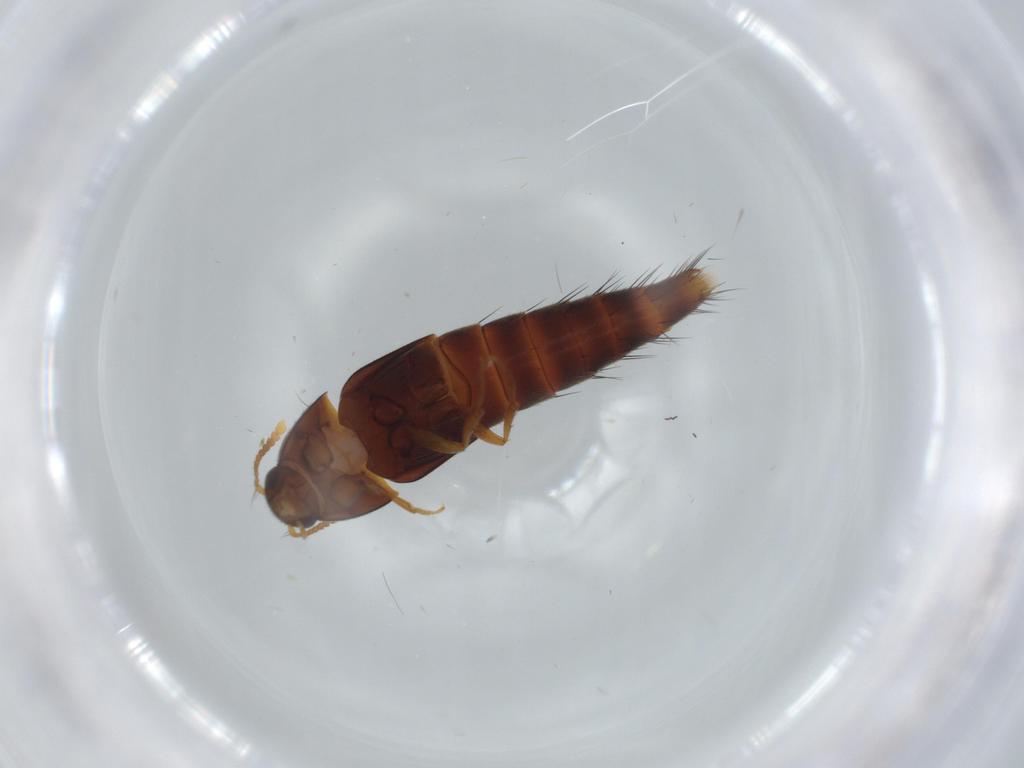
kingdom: Animalia
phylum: Arthropoda
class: Insecta
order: Coleoptera
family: Staphylinidae
